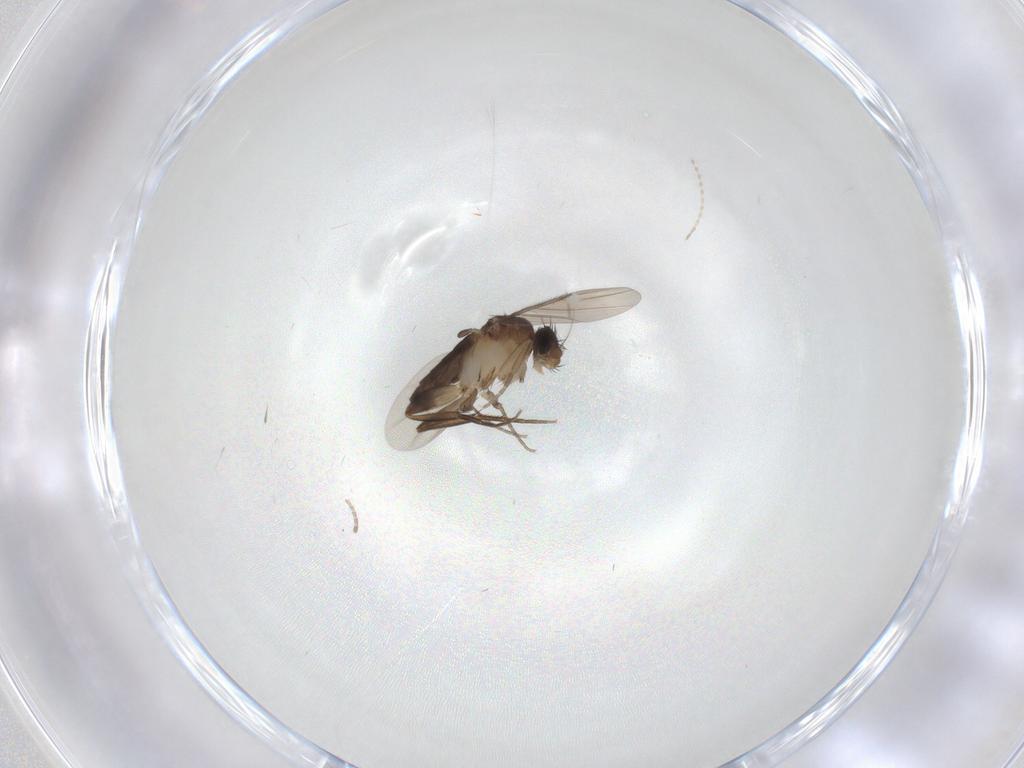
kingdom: Animalia
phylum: Arthropoda
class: Insecta
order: Diptera
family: Phoridae
